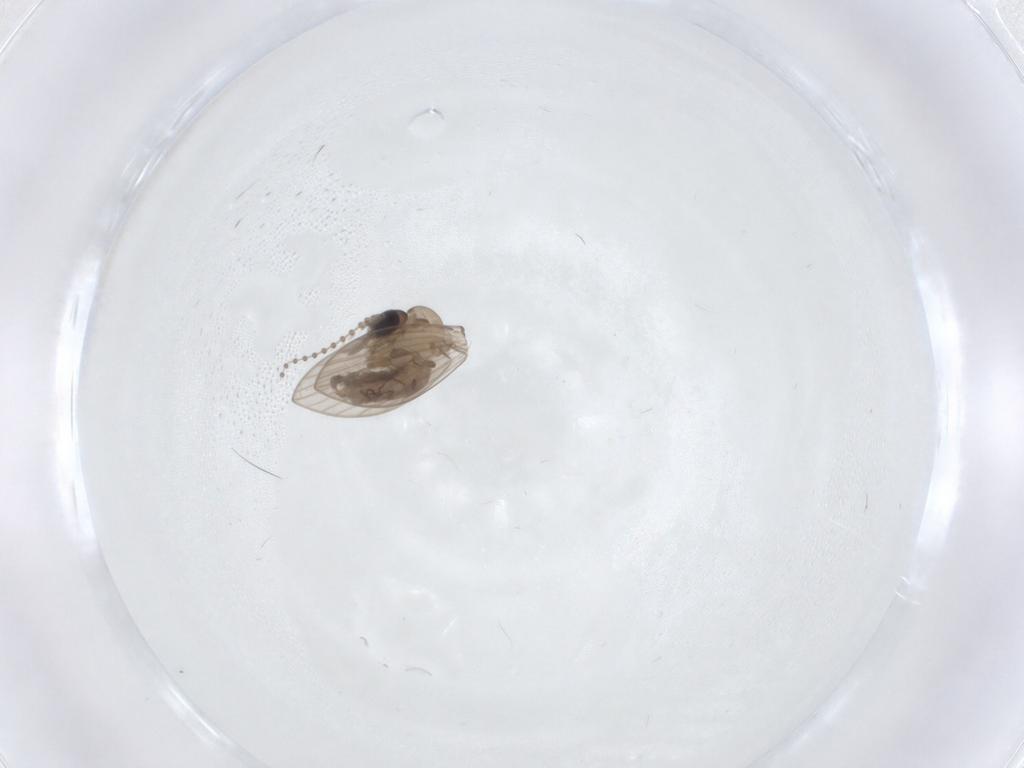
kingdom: Animalia
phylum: Arthropoda
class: Insecta
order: Diptera
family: Psychodidae
